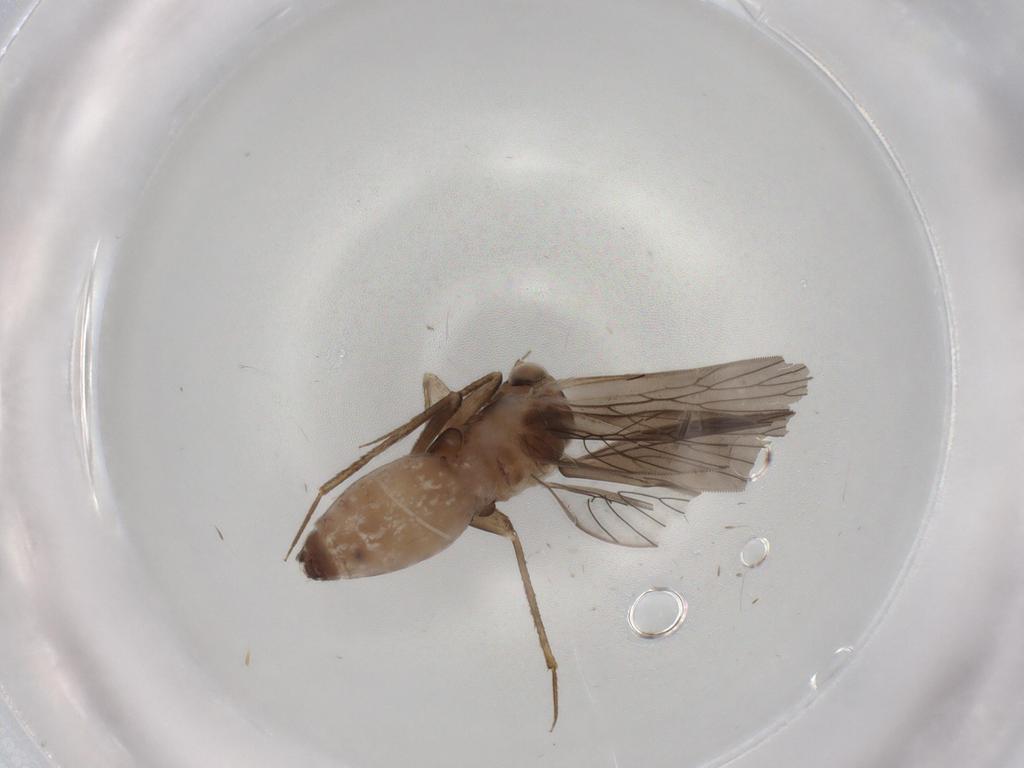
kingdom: Animalia
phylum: Arthropoda
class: Insecta
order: Psocodea
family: Lepidopsocidae
